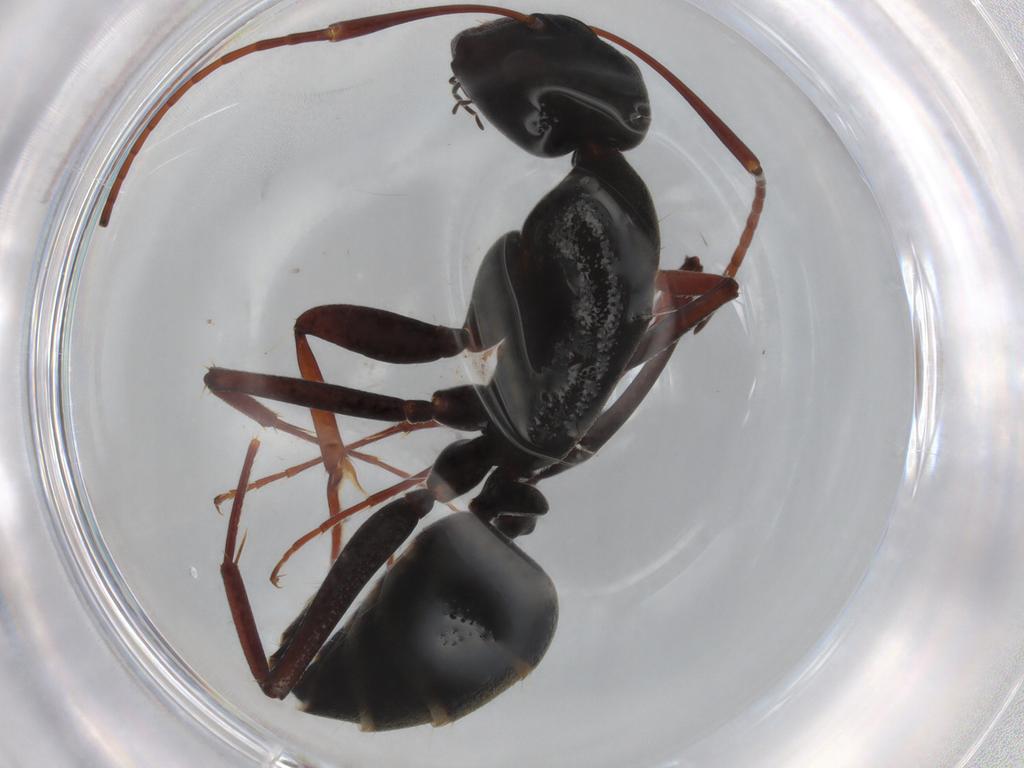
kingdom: Animalia
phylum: Arthropoda
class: Insecta
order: Hymenoptera
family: Formicidae
